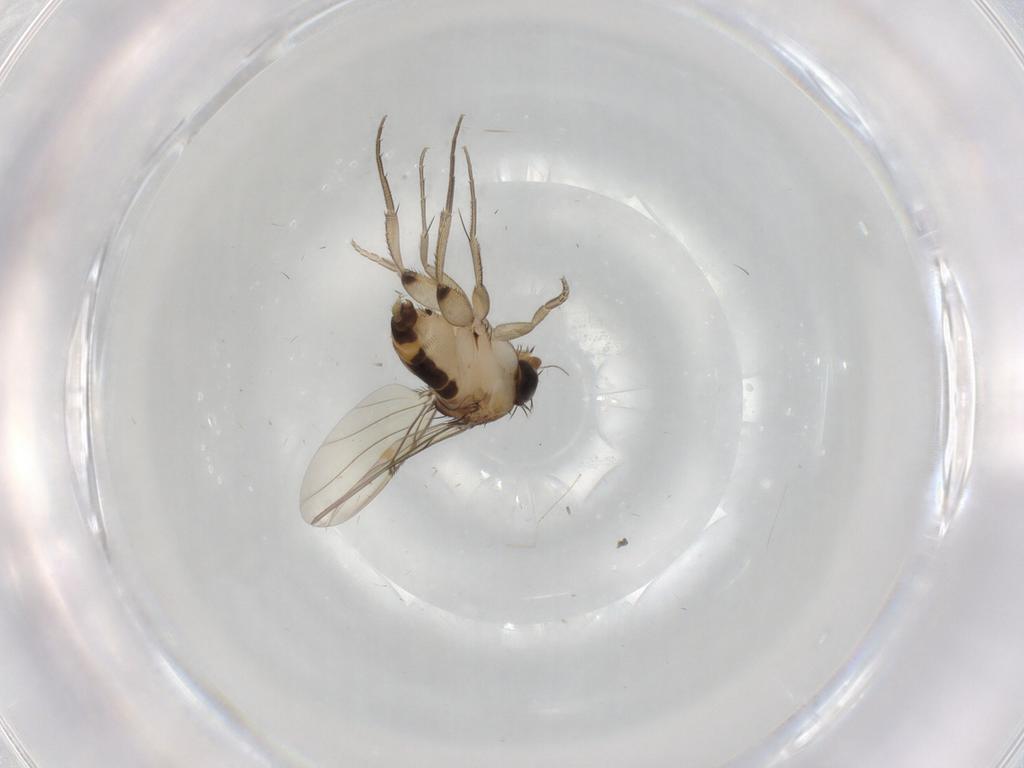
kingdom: Animalia
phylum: Arthropoda
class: Insecta
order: Diptera
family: Phoridae
